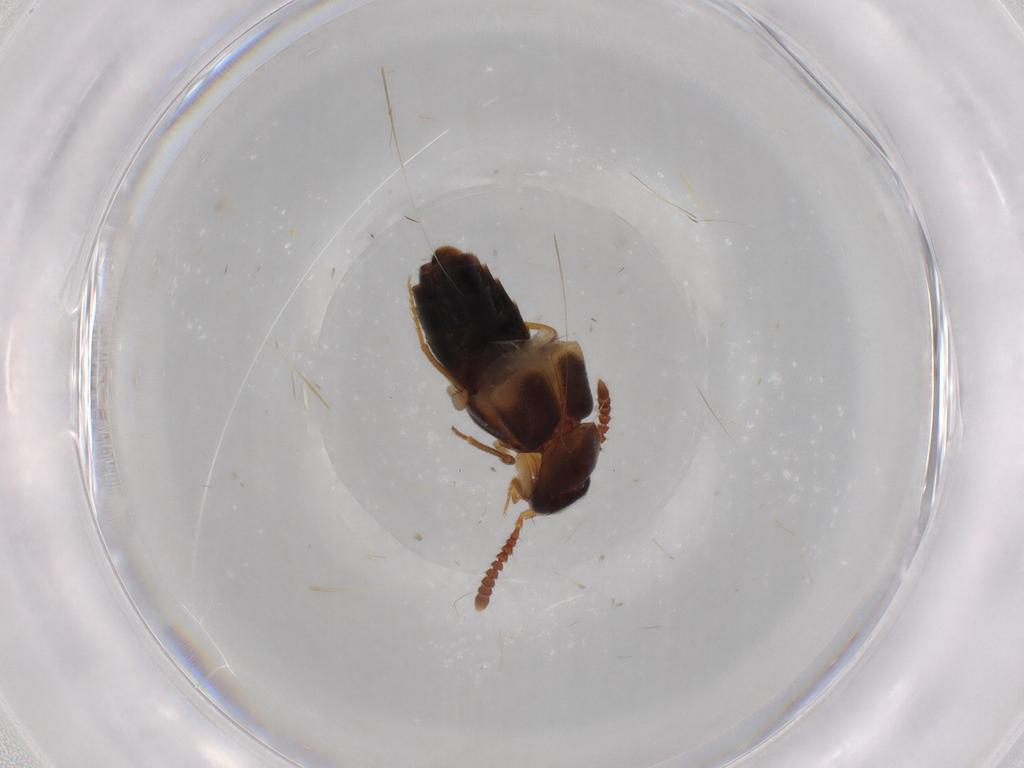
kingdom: Animalia
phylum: Arthropoda
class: Insecta
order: Coleoptera
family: Staphylinidae
